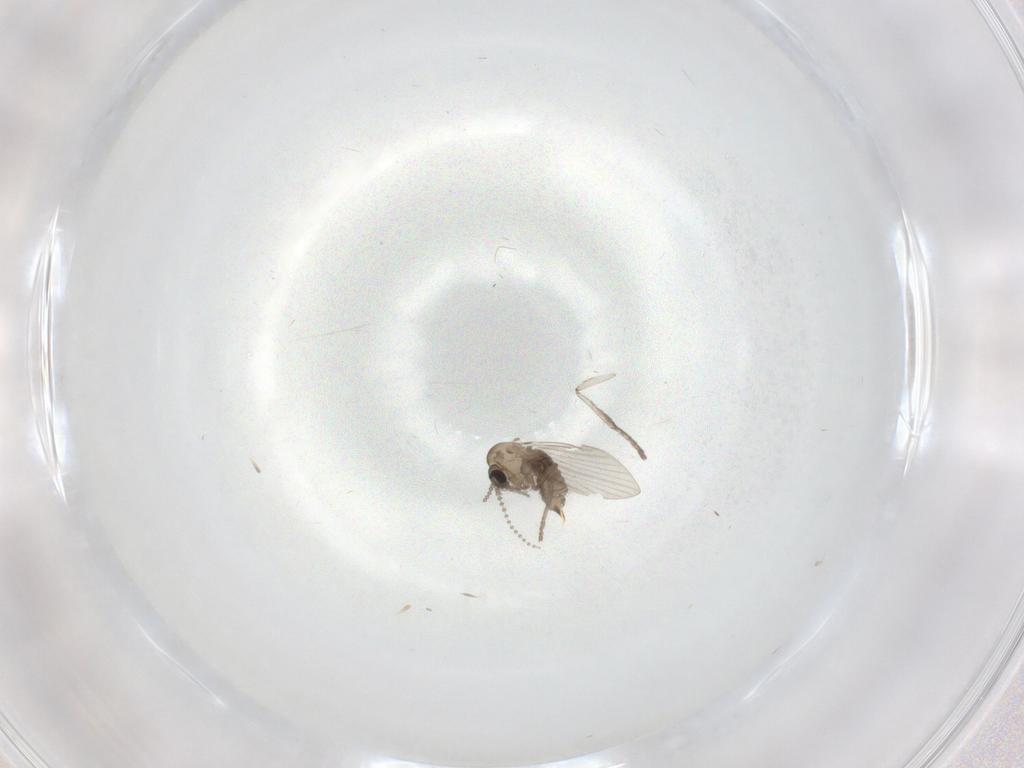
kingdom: Animalia
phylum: Arthropoda
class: Insecta
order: Diptera
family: Psychodidae
